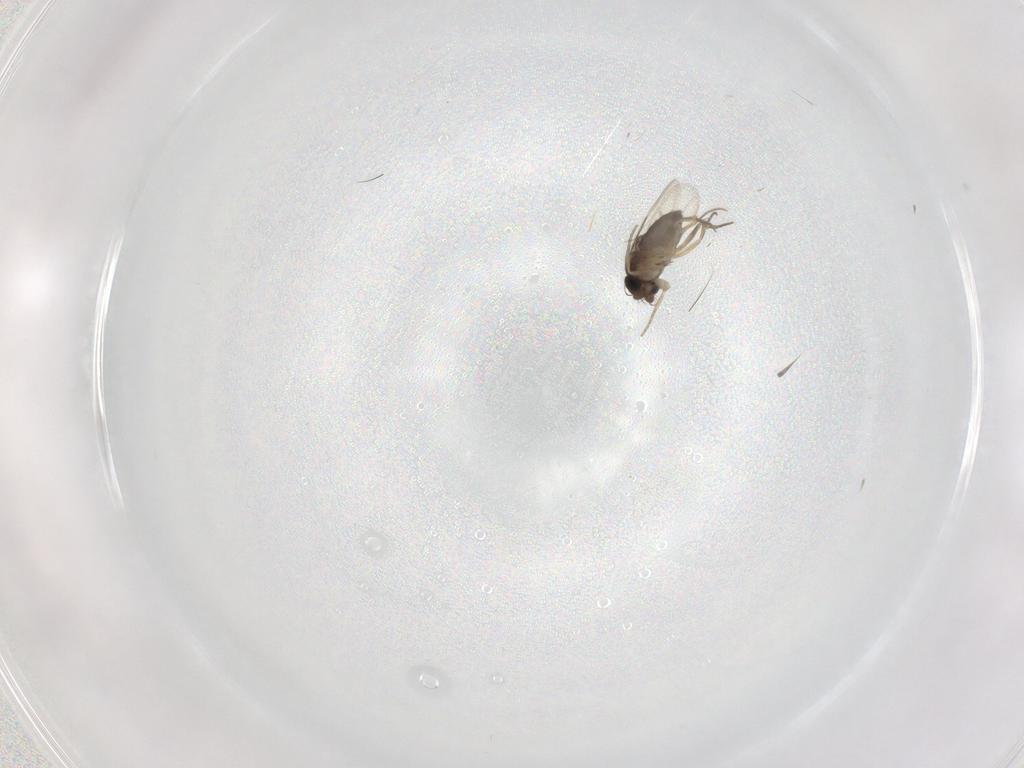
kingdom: Animalia
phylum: Arthropoda
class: Insecta
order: Diptera
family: Cecidomyiidae
